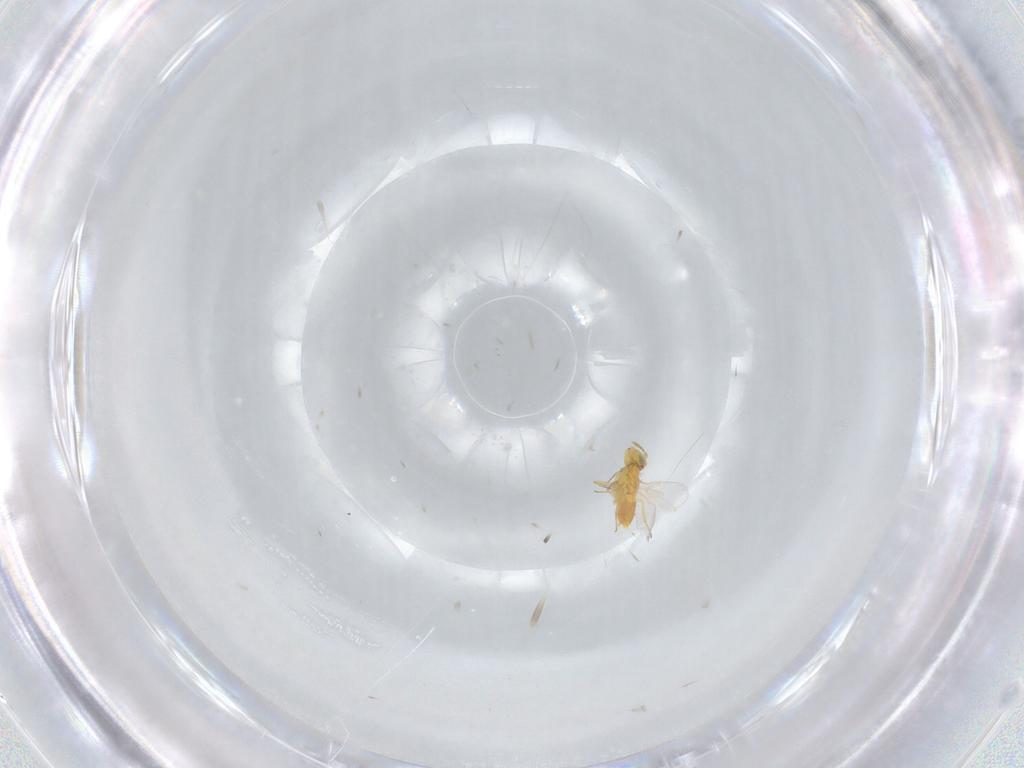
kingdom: Animalia
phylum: Arthropoda
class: Insecta
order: Hymenoptera
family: Aphelinidae
